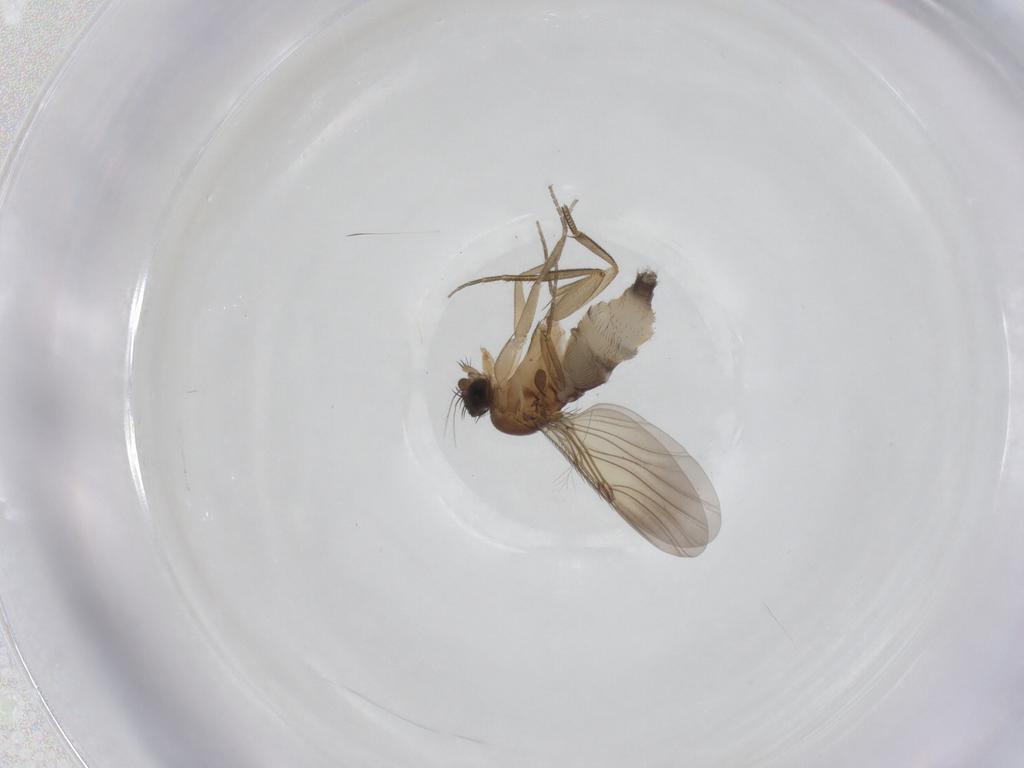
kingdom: Animalia
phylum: Arthropoda
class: Insecta
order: Diptera
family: Phoridae
